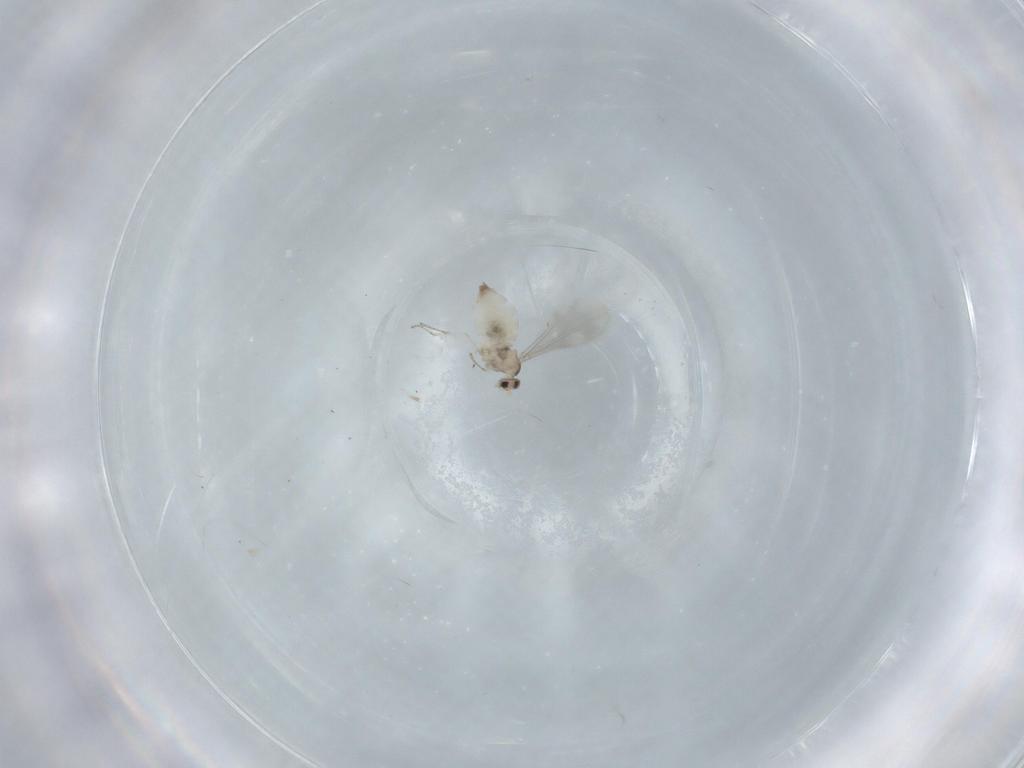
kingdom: Animalia
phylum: Arthropoda
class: Insecta
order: Diptera
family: Cecidomyiidae
